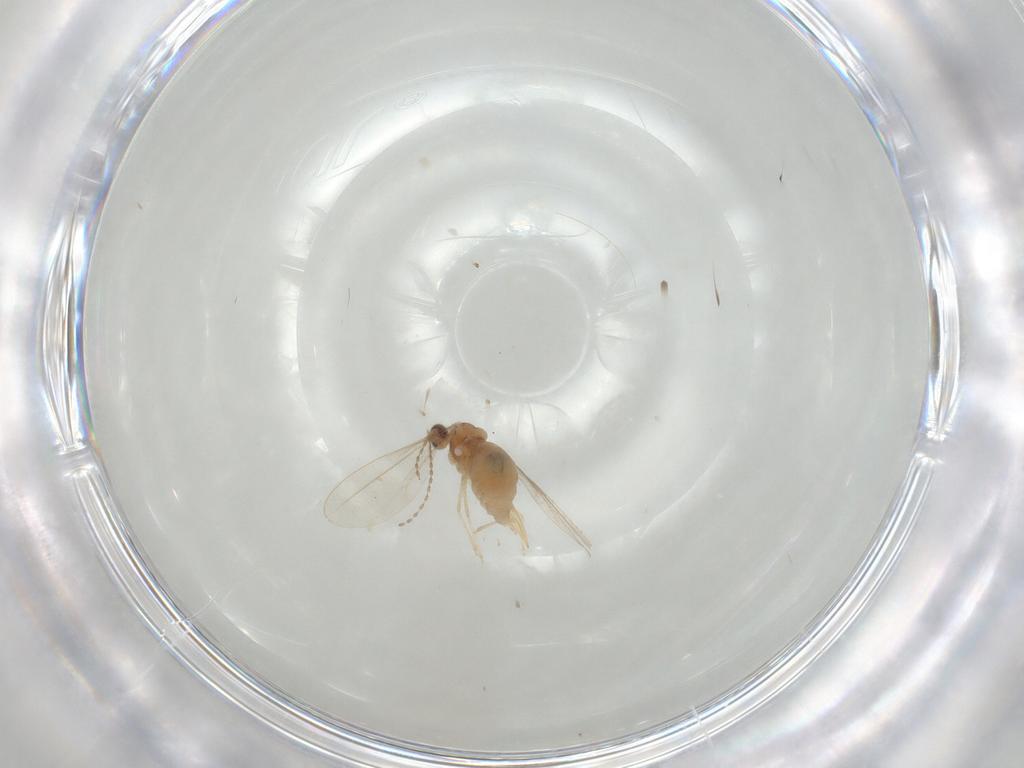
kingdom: Animalia
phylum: Arthropoda
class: Insecta
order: Diptera
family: Cecidomyiidae
